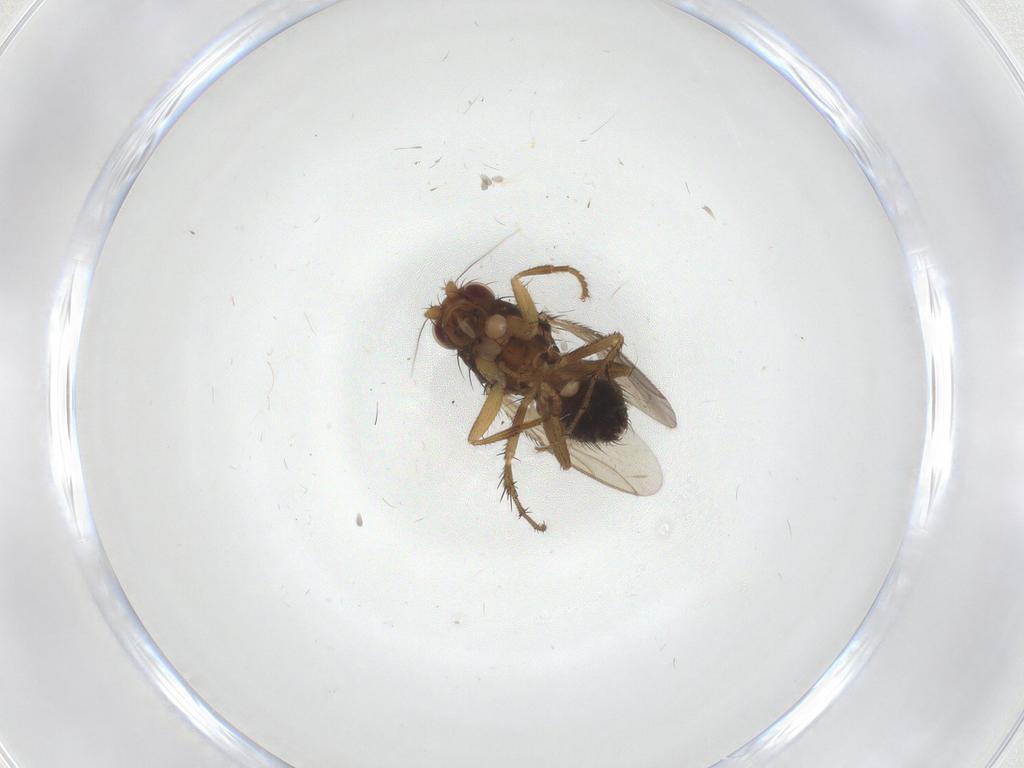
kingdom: Animalia
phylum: Arthropoda
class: Insecta
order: Diptera
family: Sphaeroceridae
